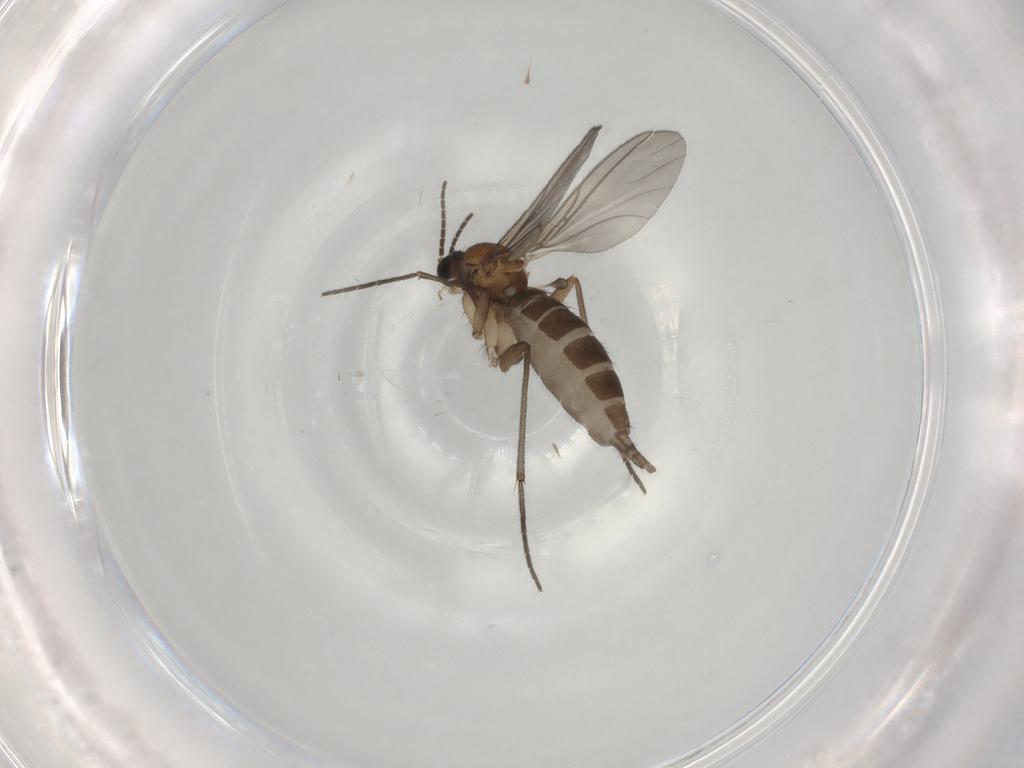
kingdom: Animalia
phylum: Arthropoda
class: Insecta
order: Diptera
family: Sciaridae
